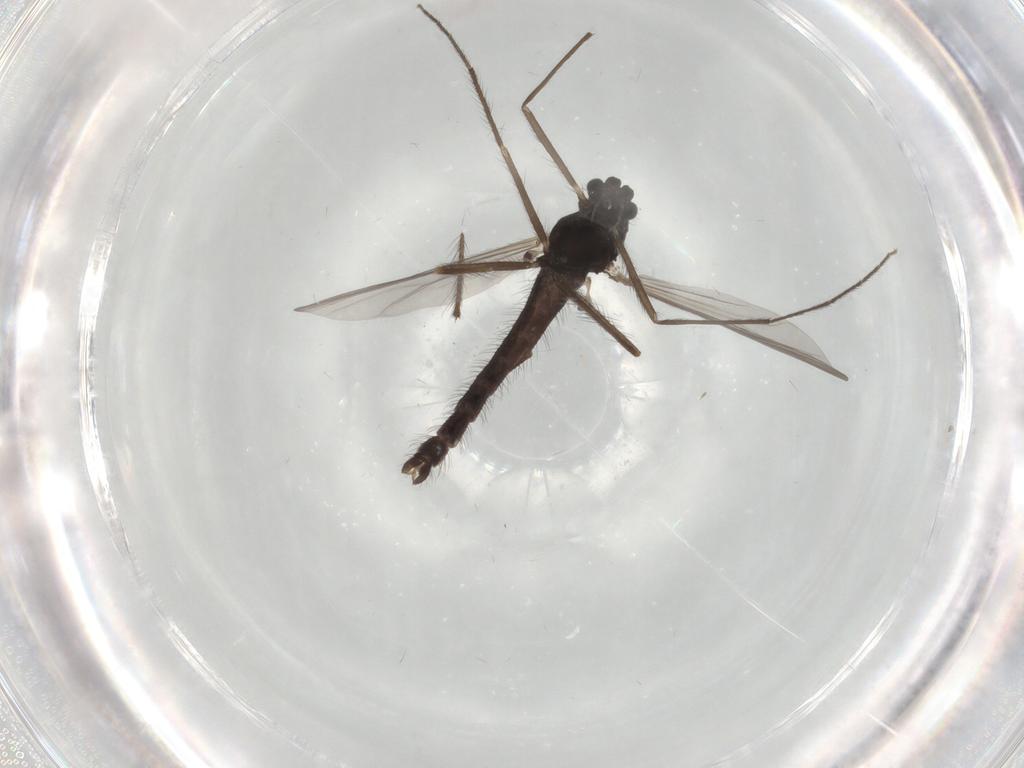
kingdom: Animalia
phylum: Arthropoda
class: Insecta
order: Diptera
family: Chironomidae
